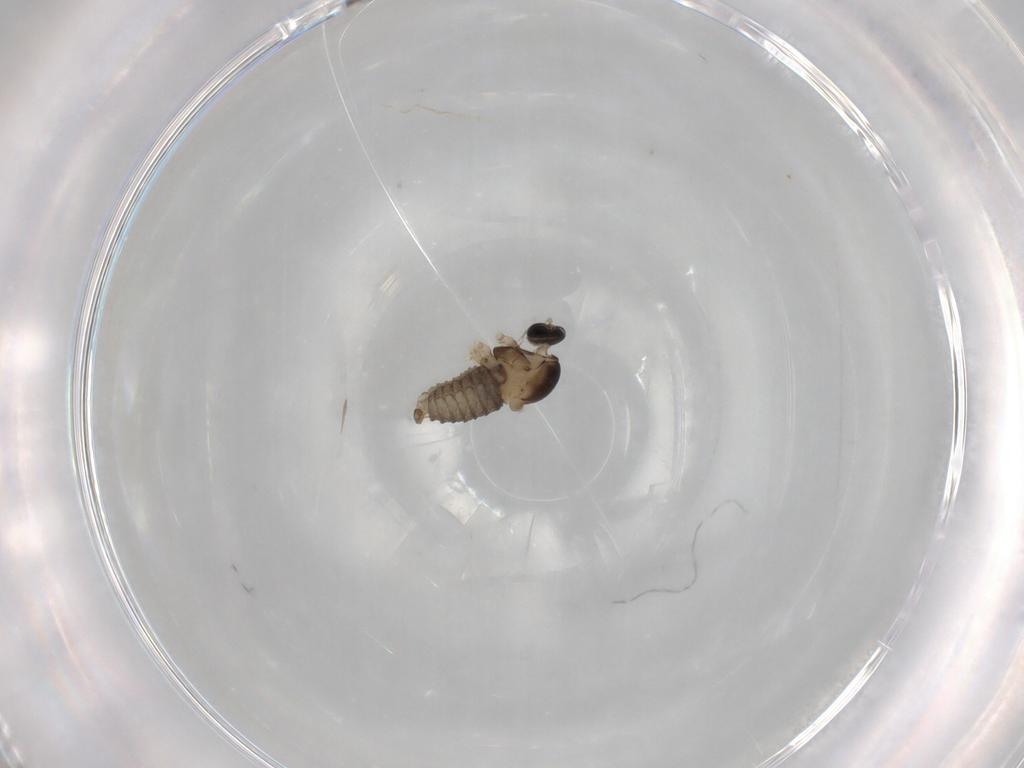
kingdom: Animalia
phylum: Arthropoda
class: Insecta
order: Diptera
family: Cecidomyiidae
